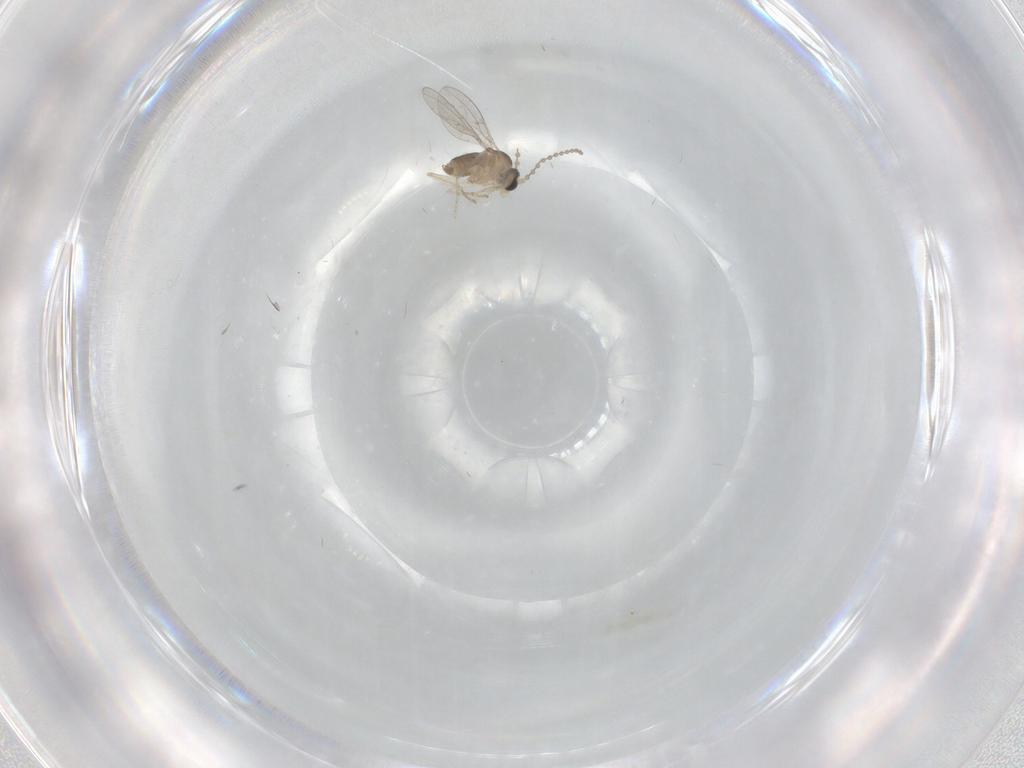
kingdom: Animalia
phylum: Arthropoda
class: Insecta
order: Diptera
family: Cecidomyiidae
